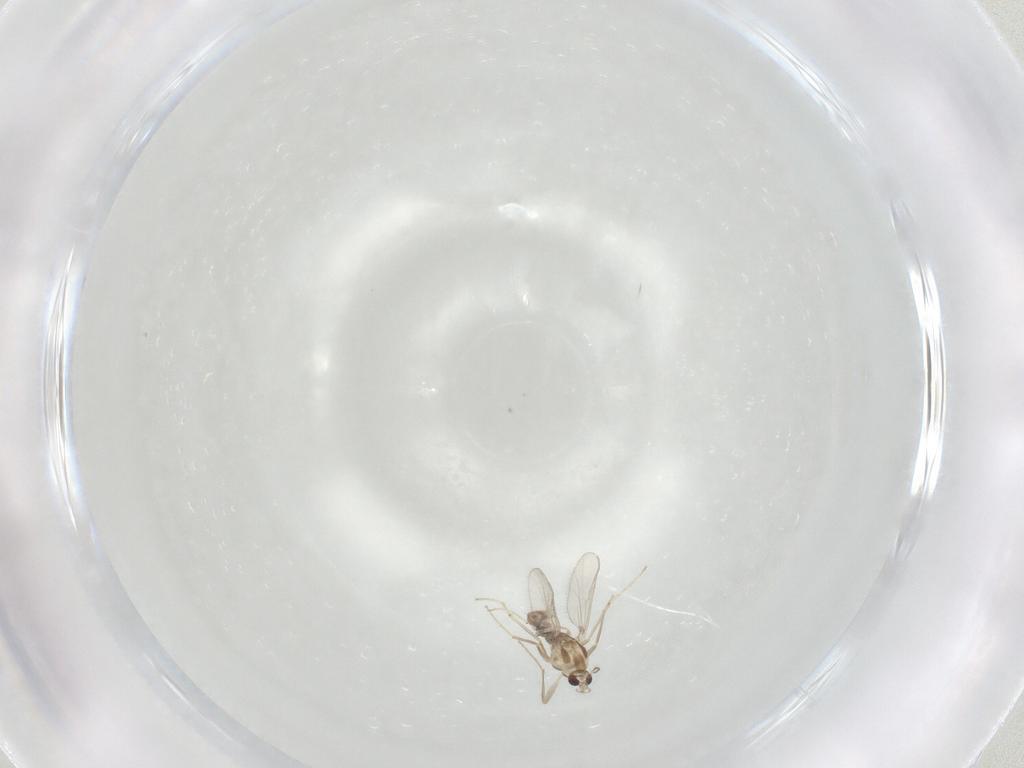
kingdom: Animalia
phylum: Arthropoda
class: Insecta
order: Diptera
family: Chironomidae
